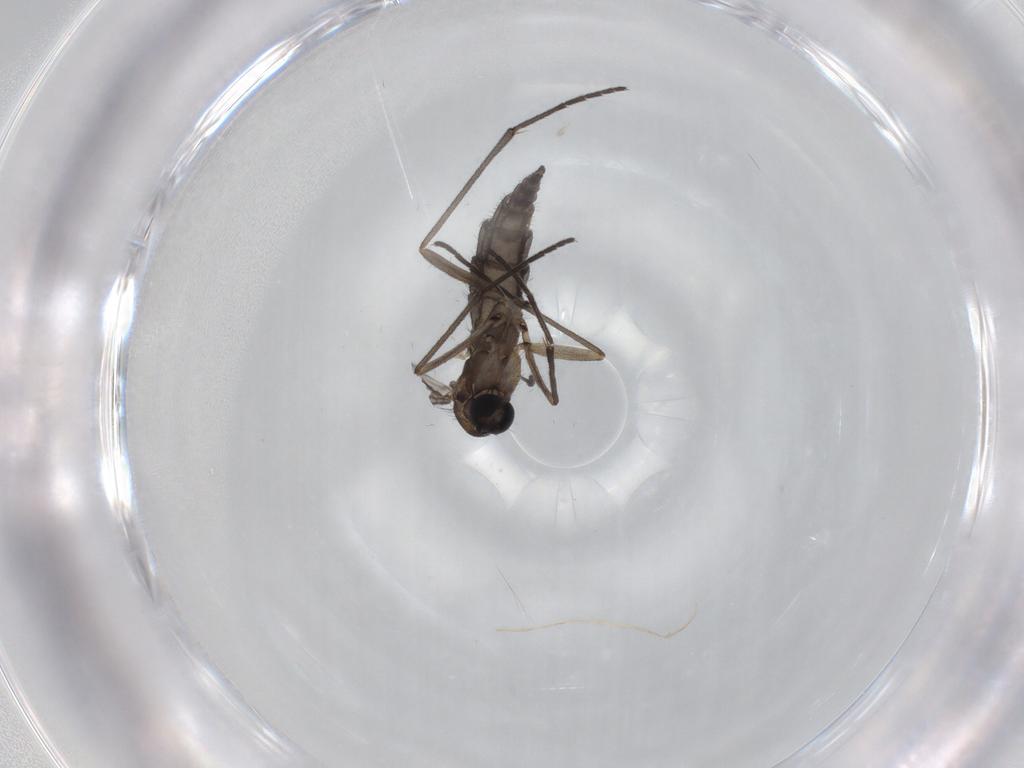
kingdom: Animalia
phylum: Arthropoda
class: Insecta
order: Diptera
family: Sciaridae
